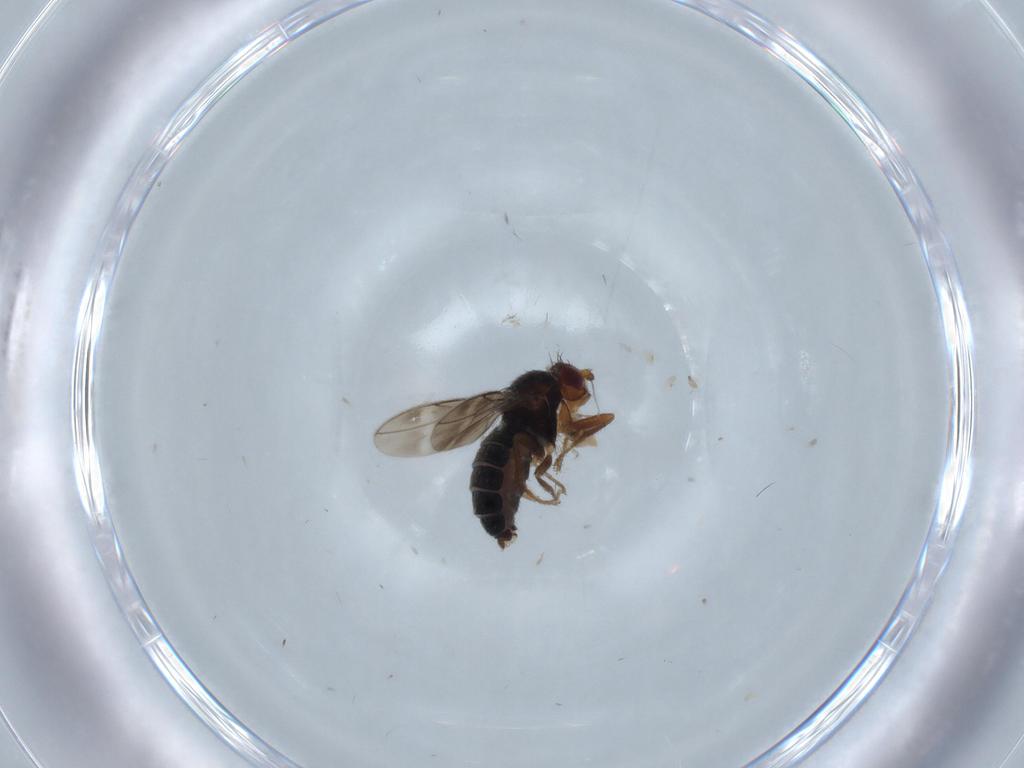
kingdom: Animalia
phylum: Arthropoda
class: Insecta
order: Diptera
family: Sphaeroceridae
